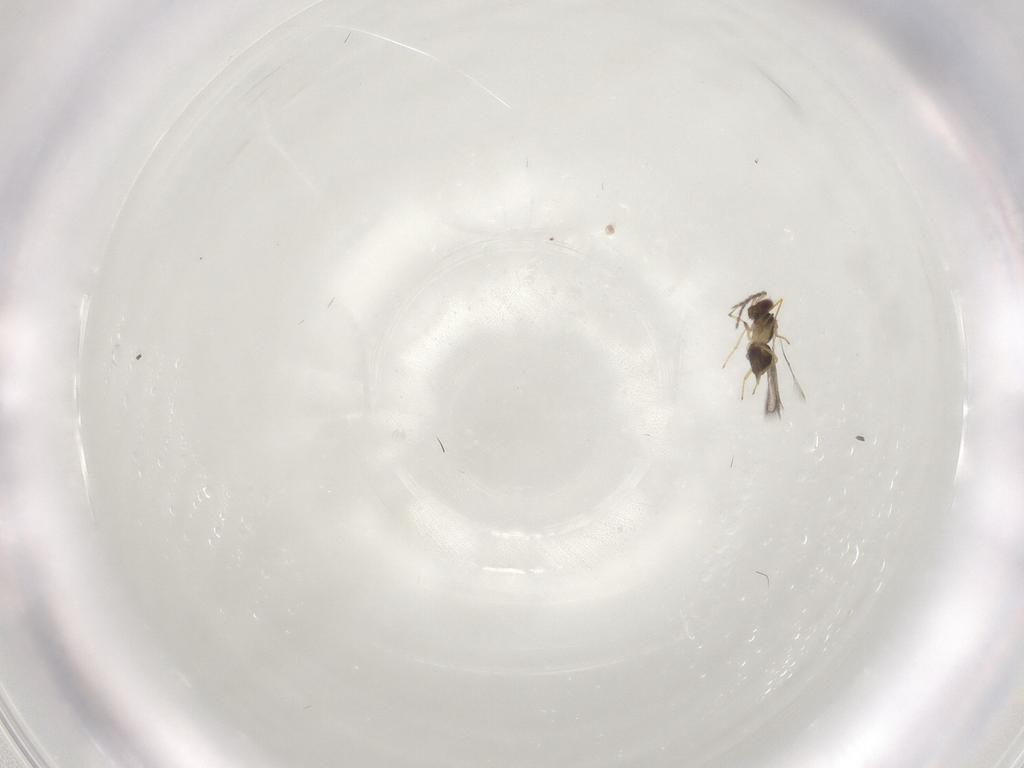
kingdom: Animalia
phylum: Arthropoda
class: Insecta
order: Hymenoptera
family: Eulophidae
